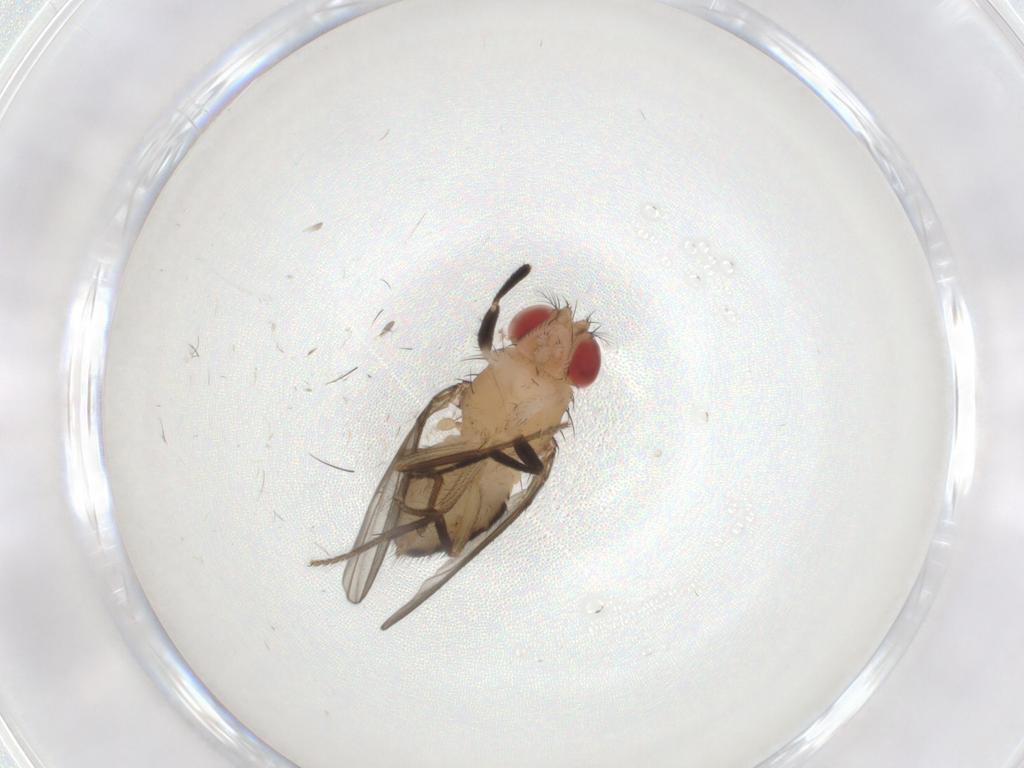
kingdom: Animalia
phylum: Arthropoda
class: Insecta
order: Diptera
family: Drosophilidae
